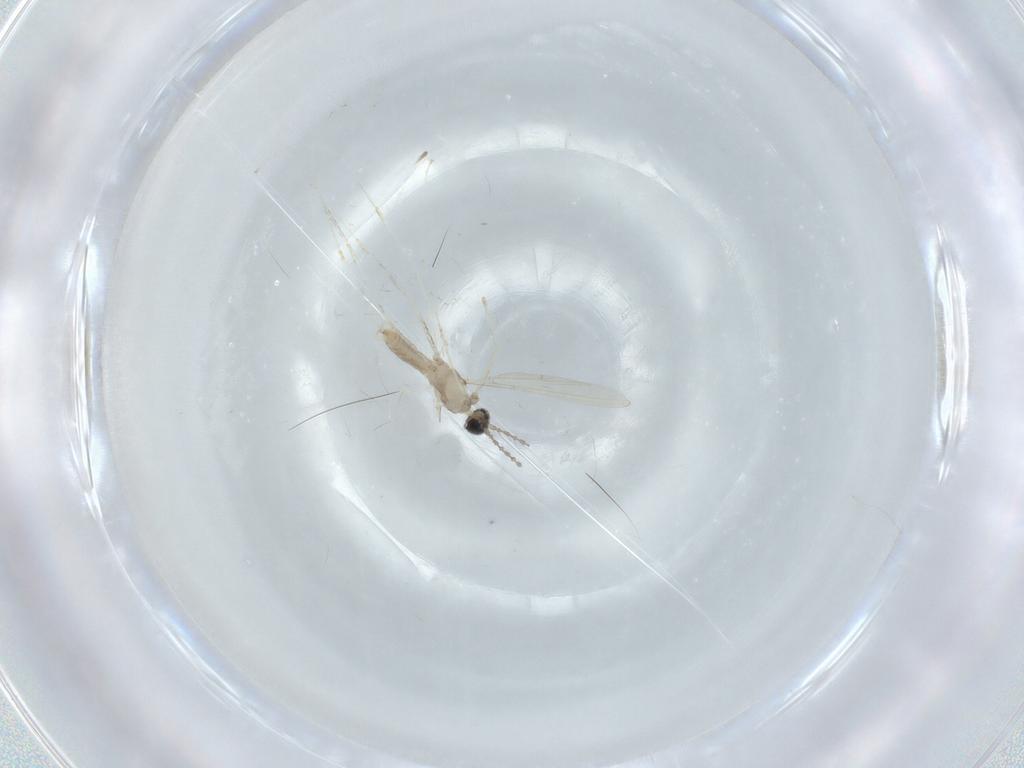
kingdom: Animalia
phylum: Arthropoda
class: Insecta
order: Diptera
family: Cecidomyiidae
